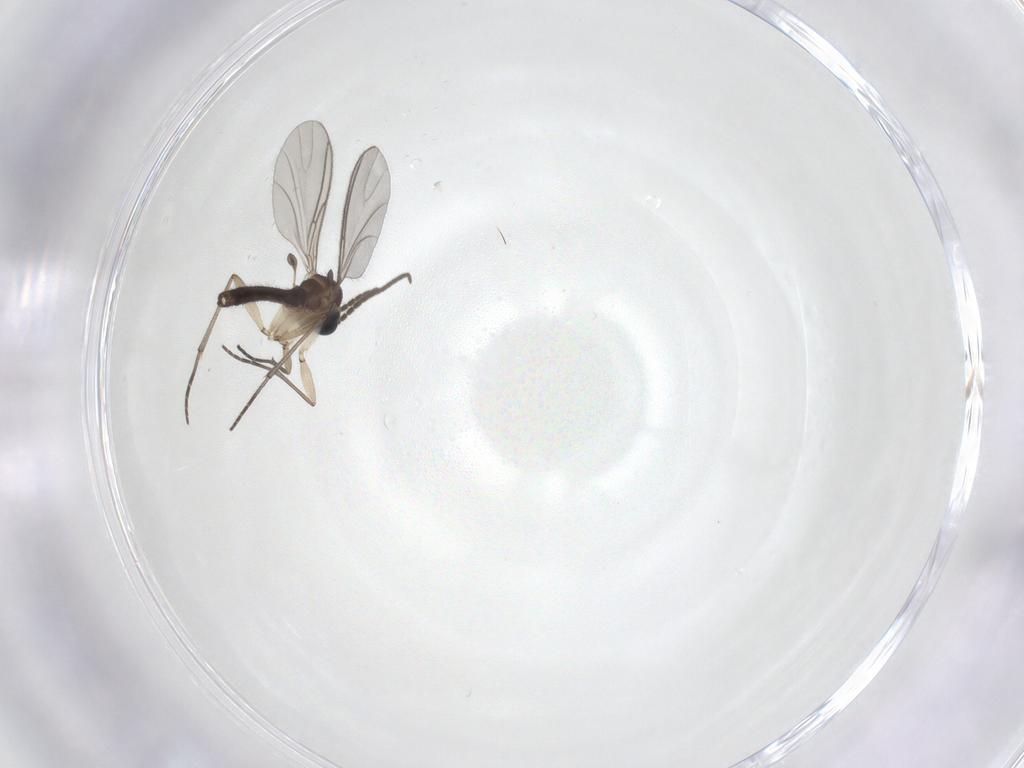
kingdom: Animalia
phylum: Arthropoda
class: Insecta
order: Diptera
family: Sciaridae
